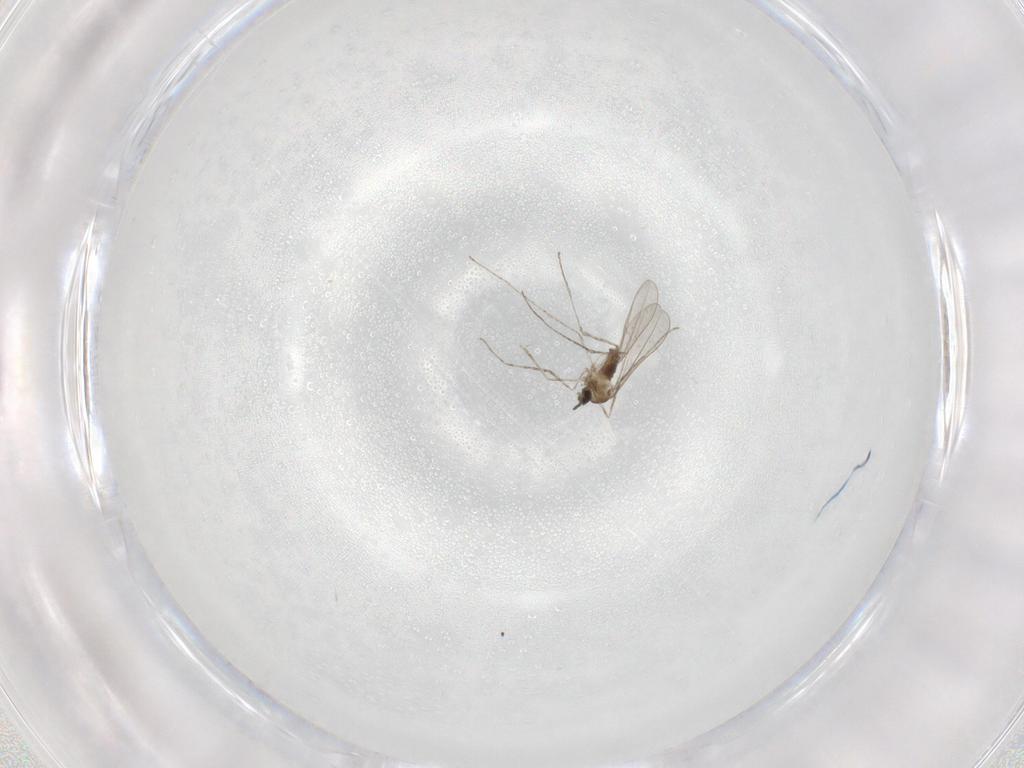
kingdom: Animalia
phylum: Arthropoda
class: Insecta
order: Diptera
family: Cecidomyiidae
